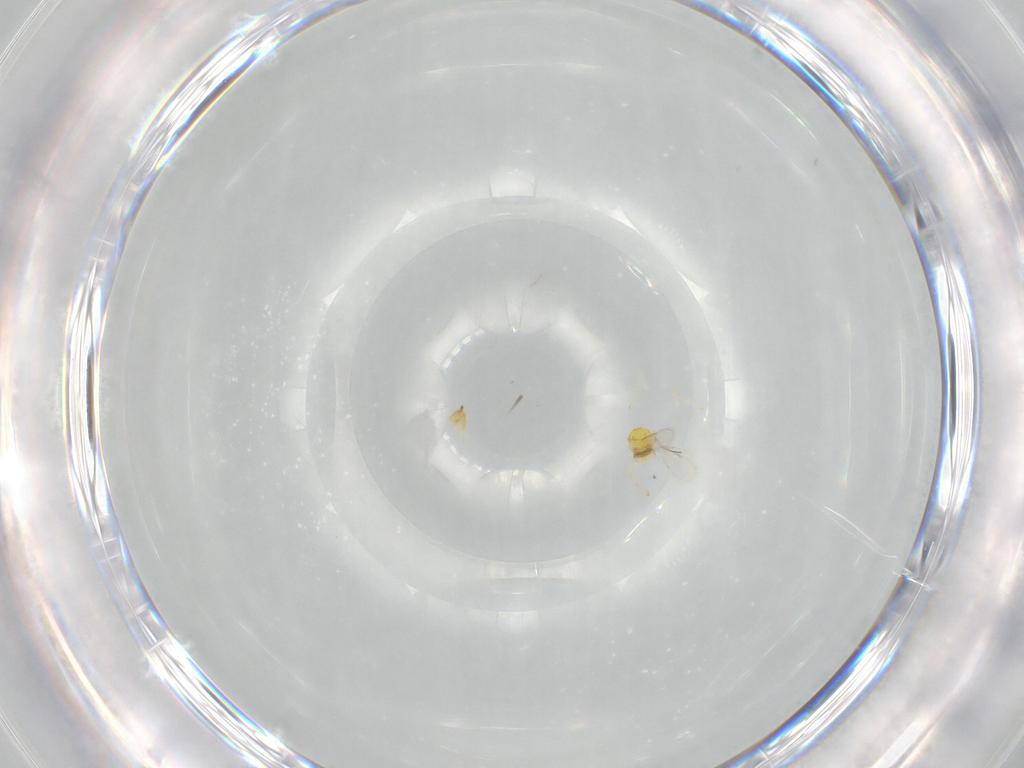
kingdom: Animalia
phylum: Arthropoda
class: Insecta
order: Hymenoptera
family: Aphelinidae
